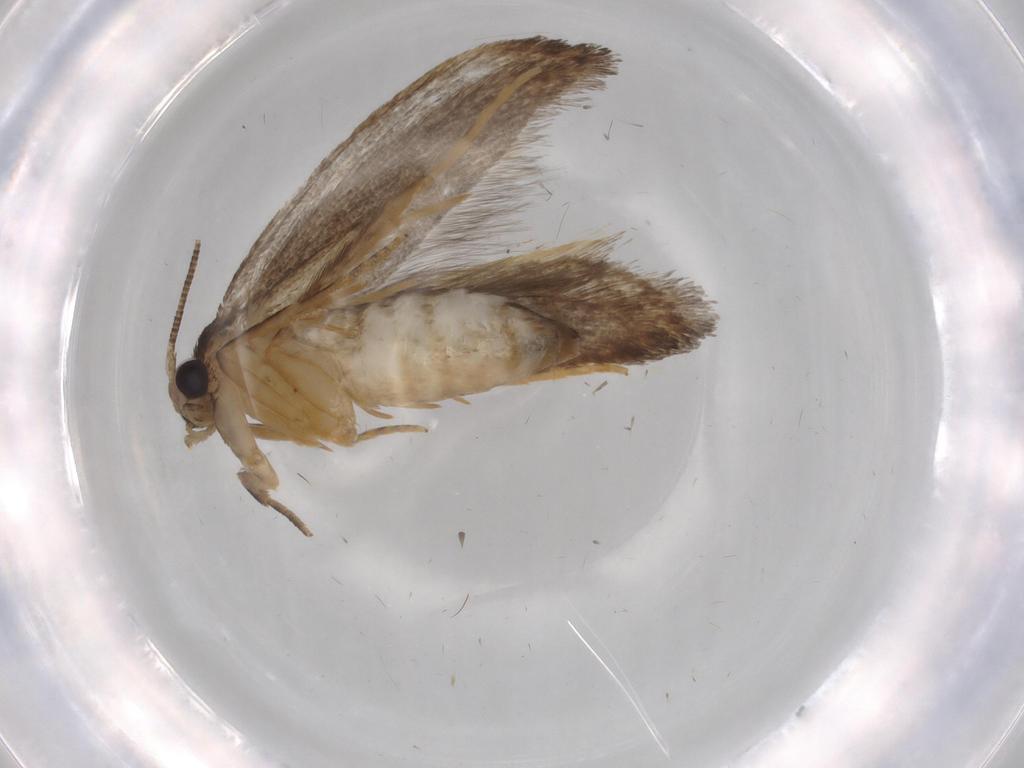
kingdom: Animalia
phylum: Arthropoda
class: Insecta
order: Lepidoptera
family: Tineidae
